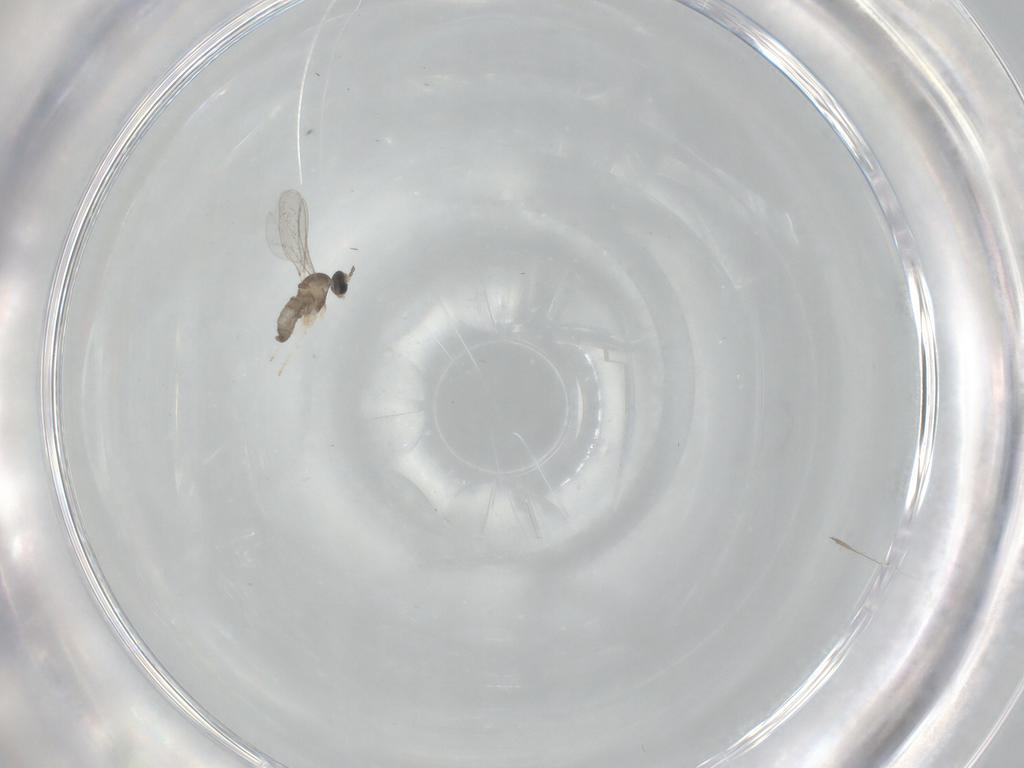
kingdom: Animalia
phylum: Arthropoda
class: Insecta
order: Diptera
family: Cecidomyiidae
